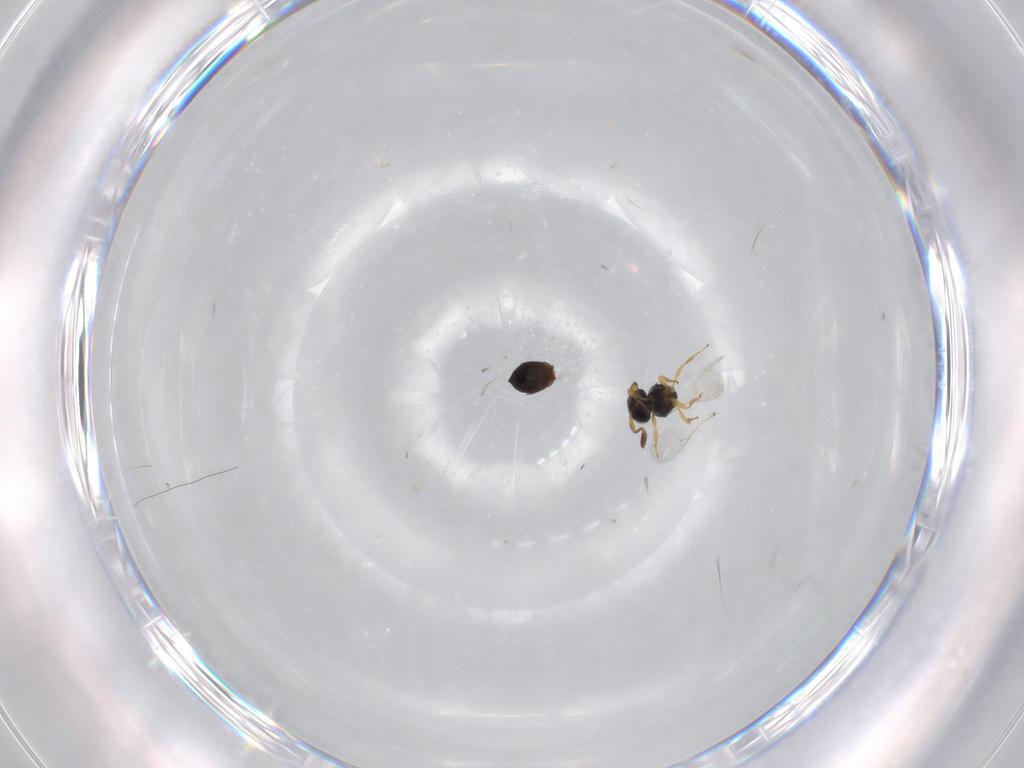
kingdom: Animalia
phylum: Arthropoda
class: Insecta
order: Hymenoptera
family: Scelionidae
